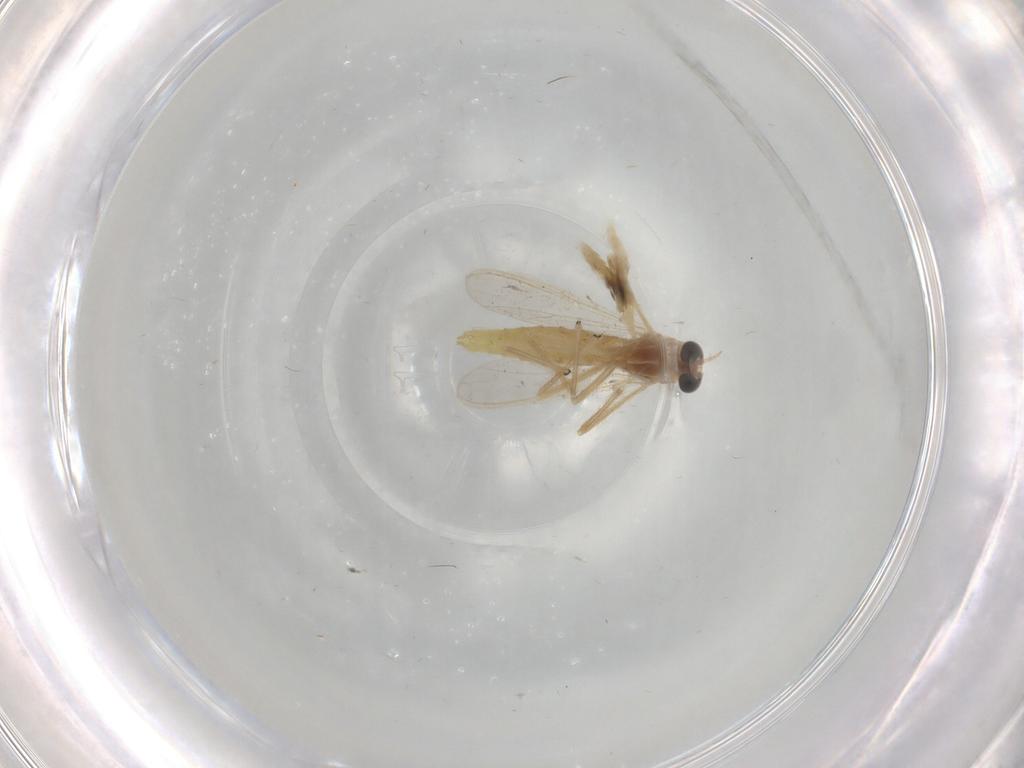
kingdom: Animalia
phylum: Arthropoda
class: Insecta
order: Diptera
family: Chironomidae
